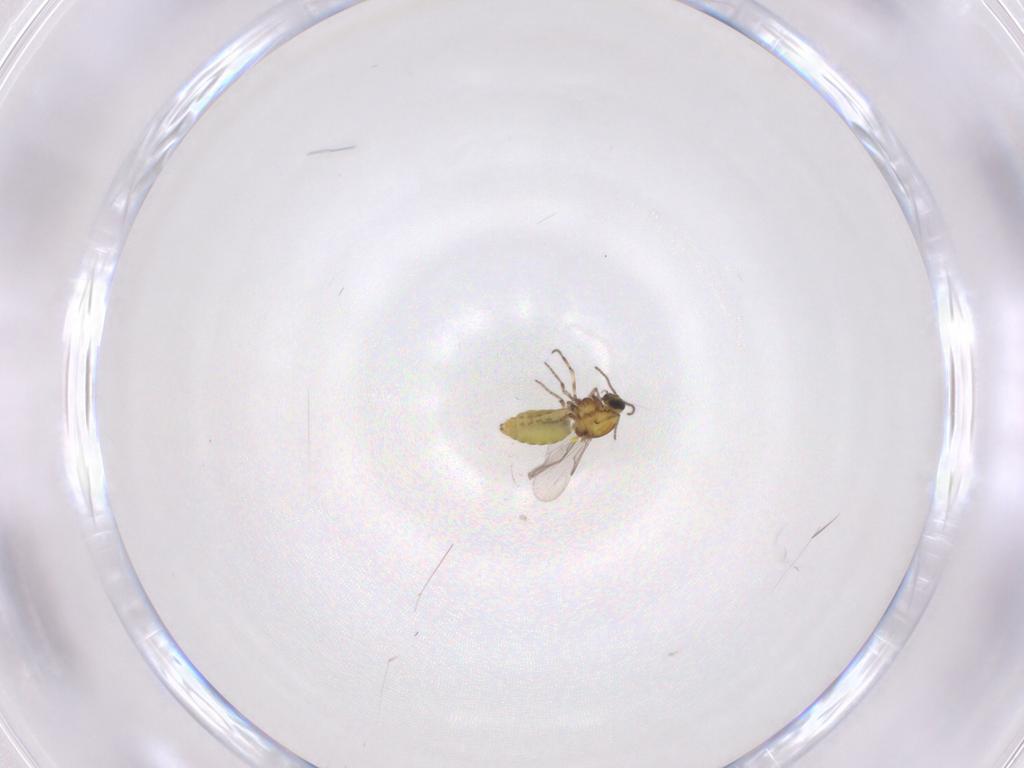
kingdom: Animalia
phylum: Arthropoda
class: Insecta
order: Diptera
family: Ceratopogonidae
